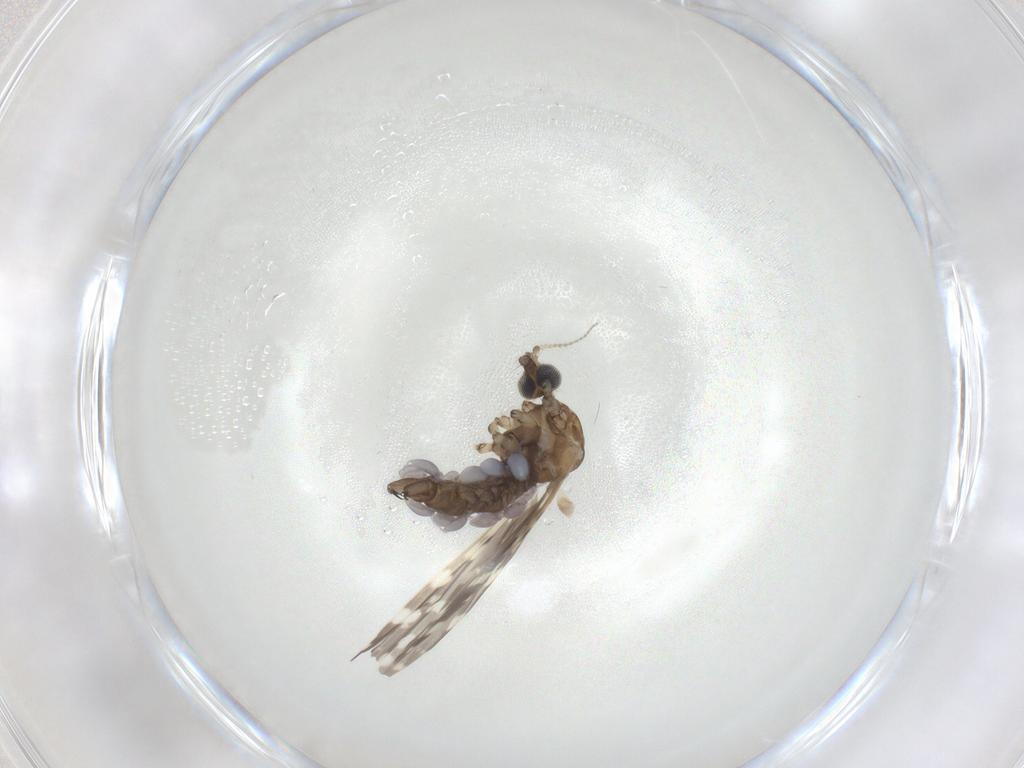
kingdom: Animalia
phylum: Arthropoda
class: Insecta
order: Diptera
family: Limoniidae
